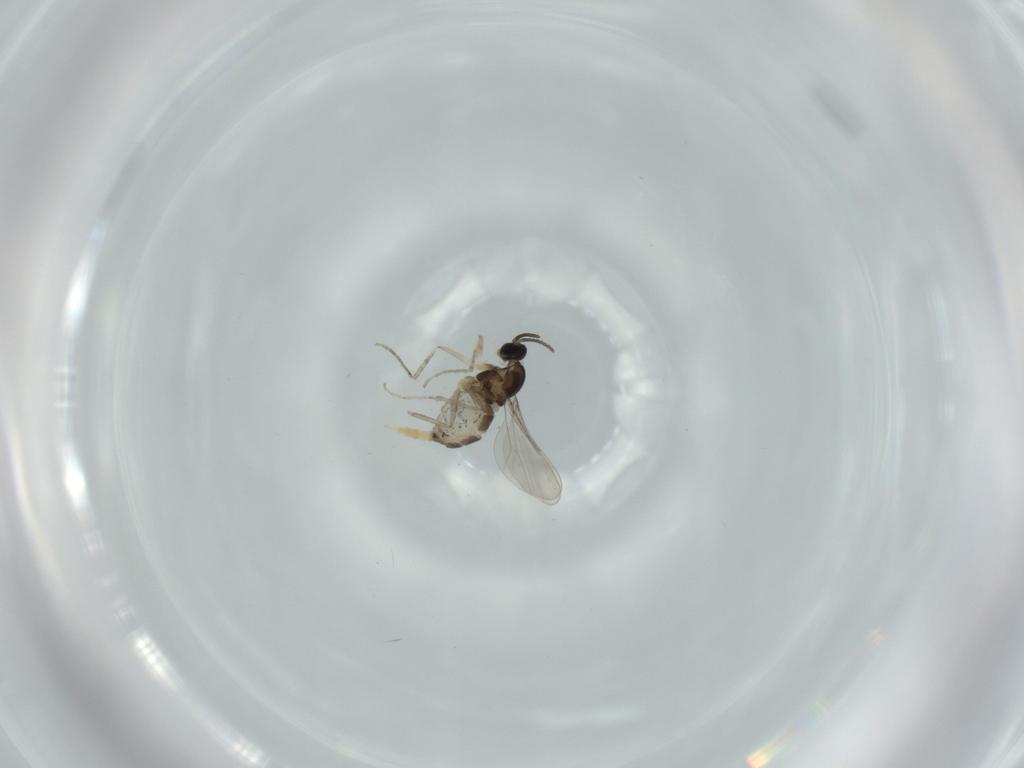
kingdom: Animalia
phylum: Arthropoda
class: Insecta
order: Diptera
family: Cecidomyiidae
